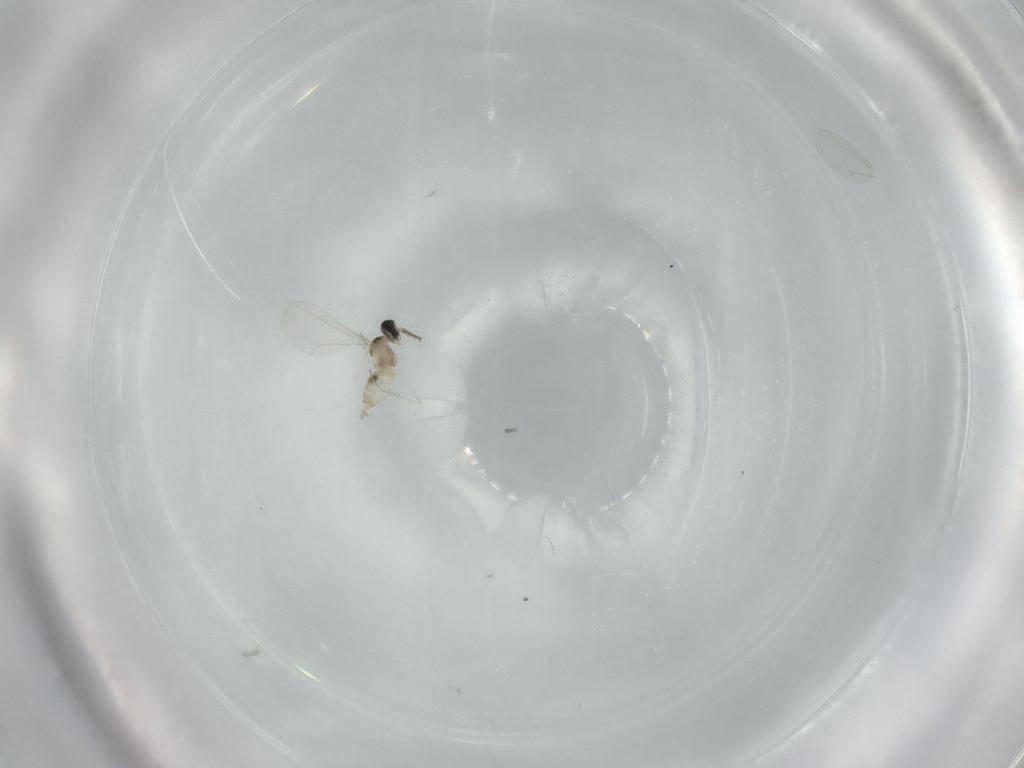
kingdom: Animalia
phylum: Arthropoda
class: Insecta
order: Diptera
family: Cecidomyiidae
